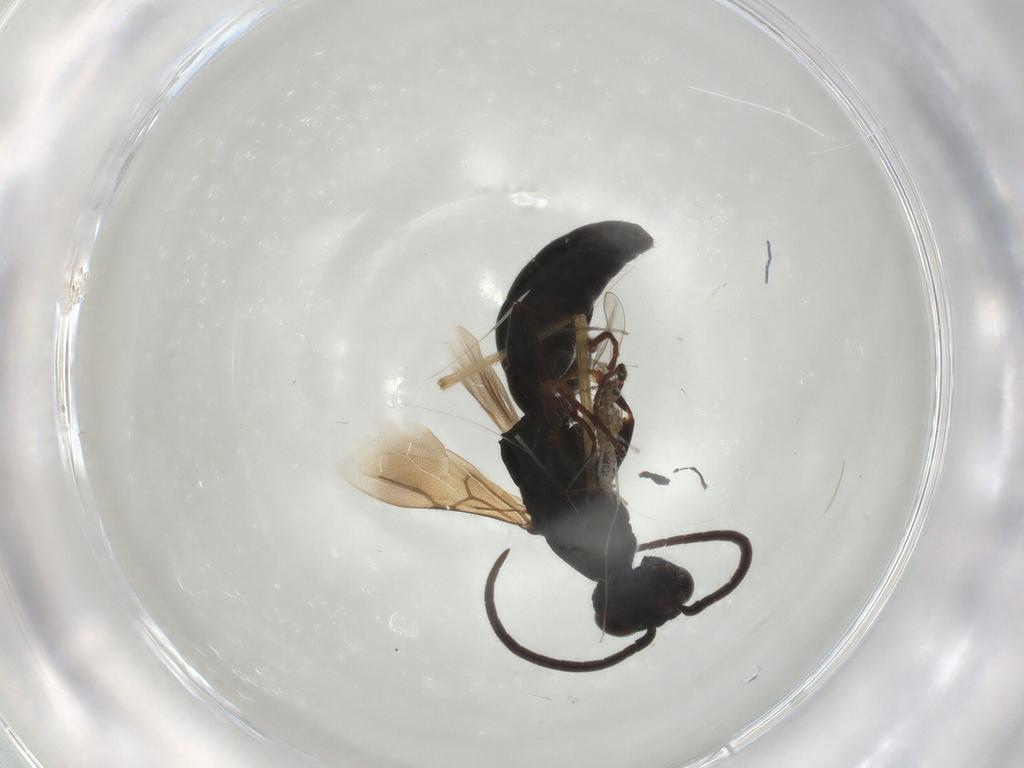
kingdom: Animalia
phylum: Arthropoda
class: Insecta
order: Hymenoptera
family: Bethylidae
